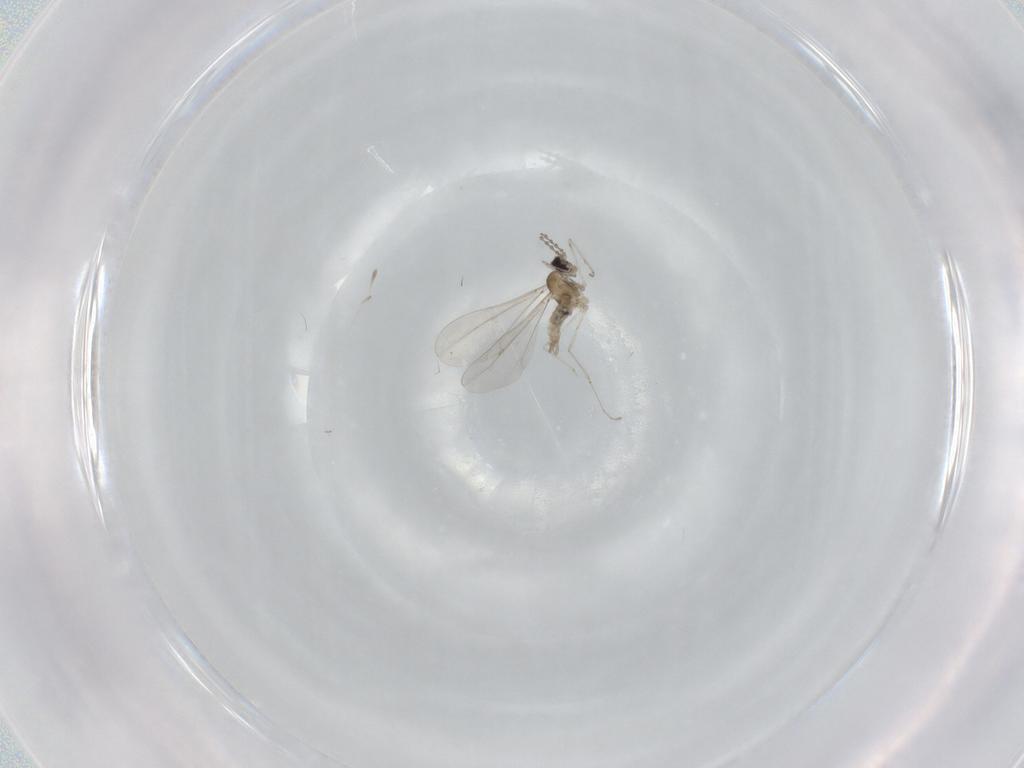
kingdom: Animalia
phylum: Arthropoda
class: Insecta
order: Diptera
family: Cecidomyiidae
